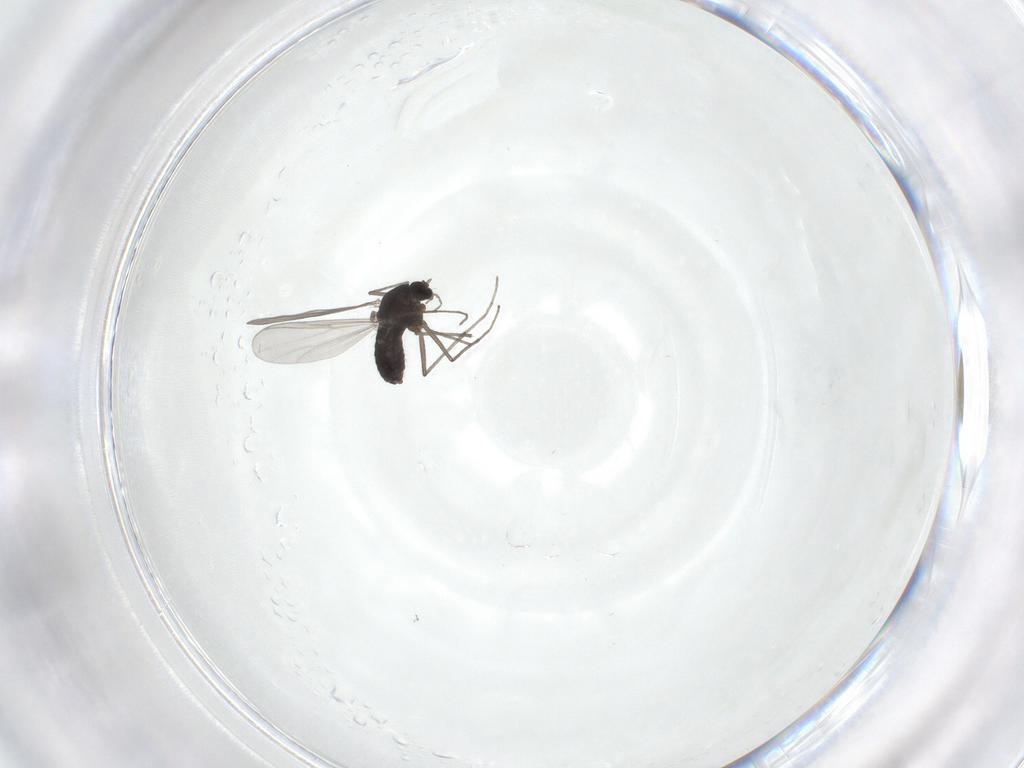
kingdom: Animalia
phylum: Arthropoda
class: Insecta
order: Diptera
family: Chironomidae
